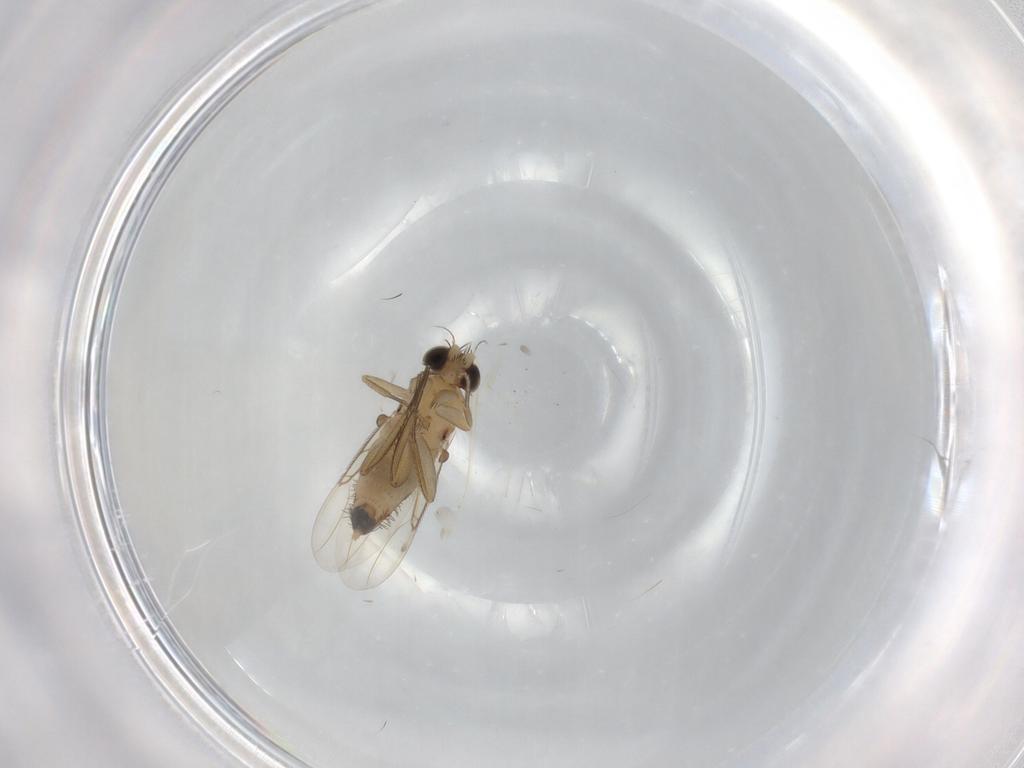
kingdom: Animalia
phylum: Arthropoda
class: Insecta
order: Diptera
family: Phoridae
